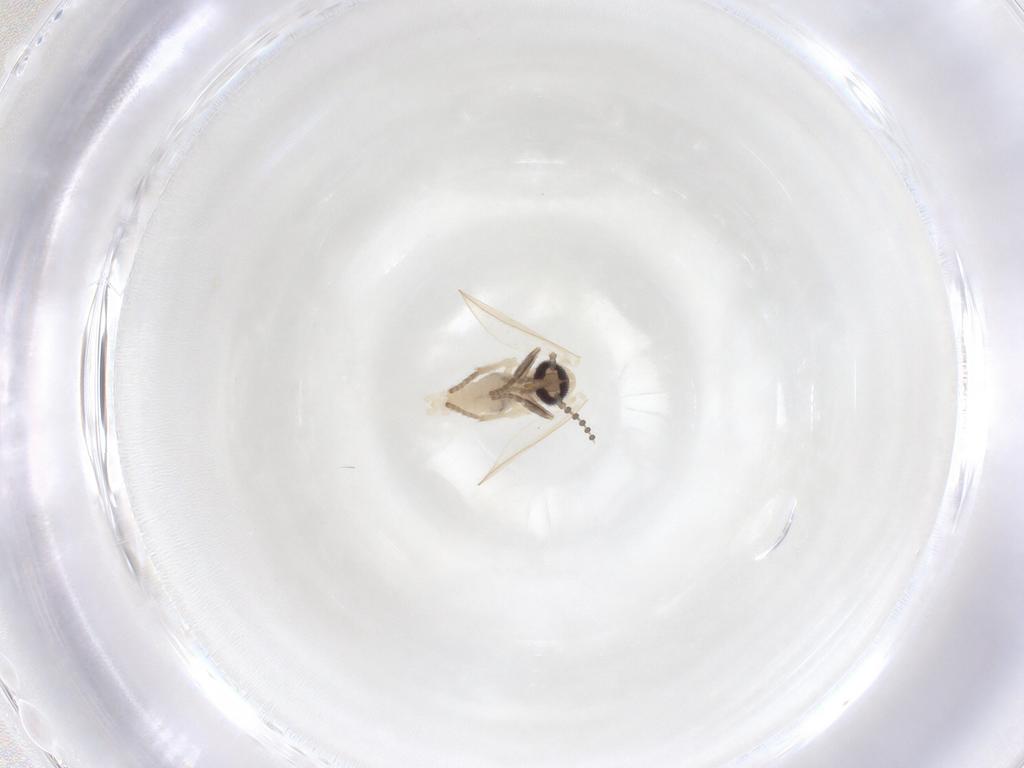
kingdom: Animalia
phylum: Arthropoda
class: Insecta
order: Diptera
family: Psychodidae
